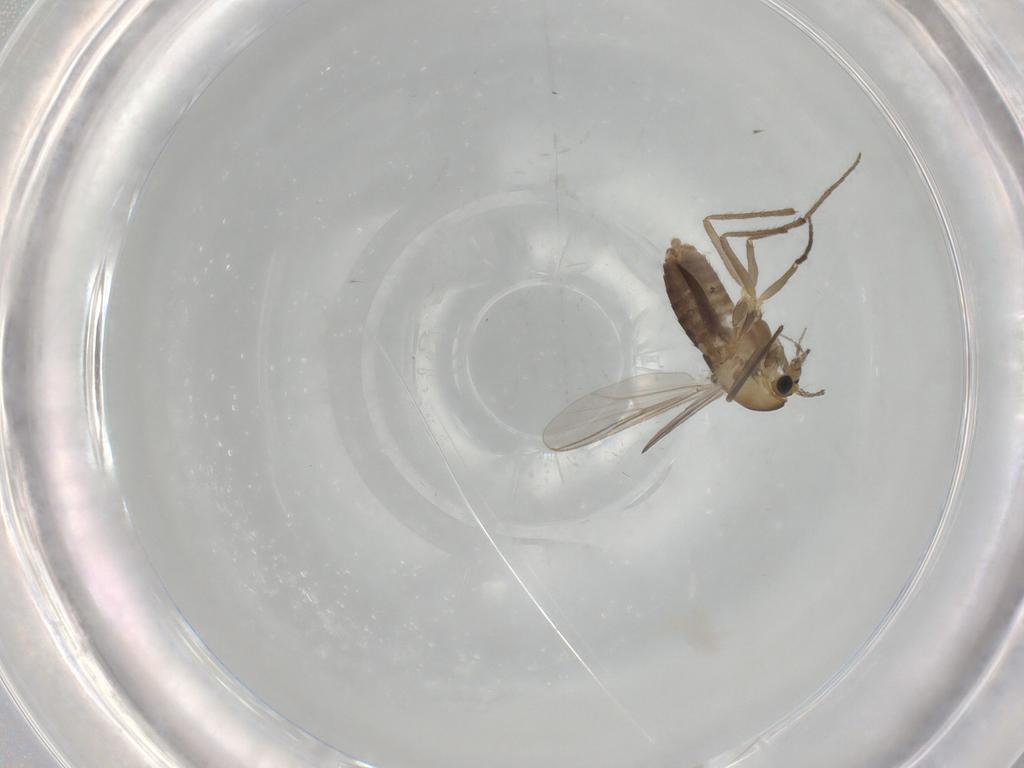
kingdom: Animalia
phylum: Arthropoda
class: Insecta
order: Diptera
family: Chironomidae
